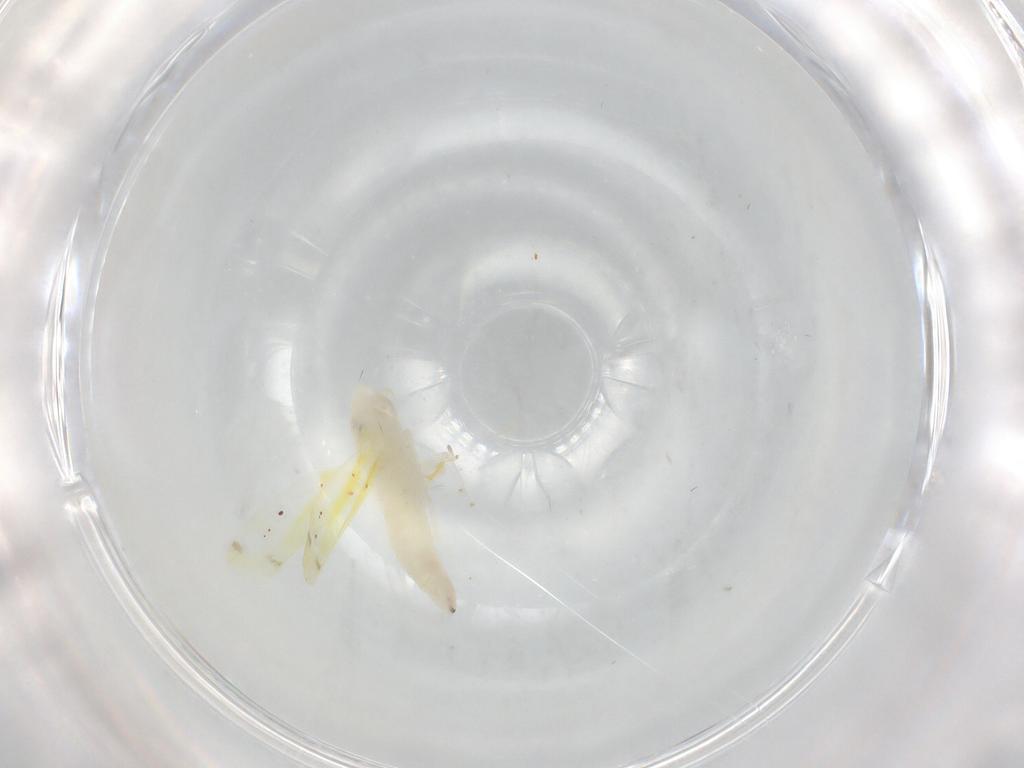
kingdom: Animalia
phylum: Arthropoda
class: Insecta
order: Hemiptera
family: Cicadellidae
